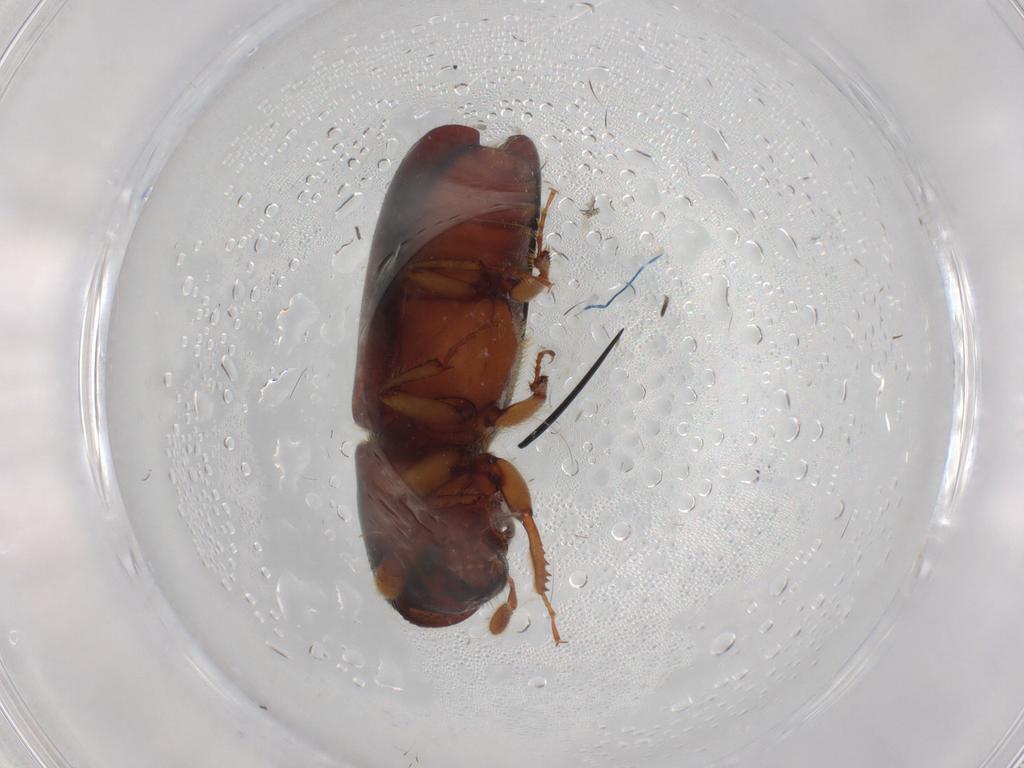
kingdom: Animalia
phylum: Arthropoda
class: Insecta
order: Coleoptera
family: Curculionidae
